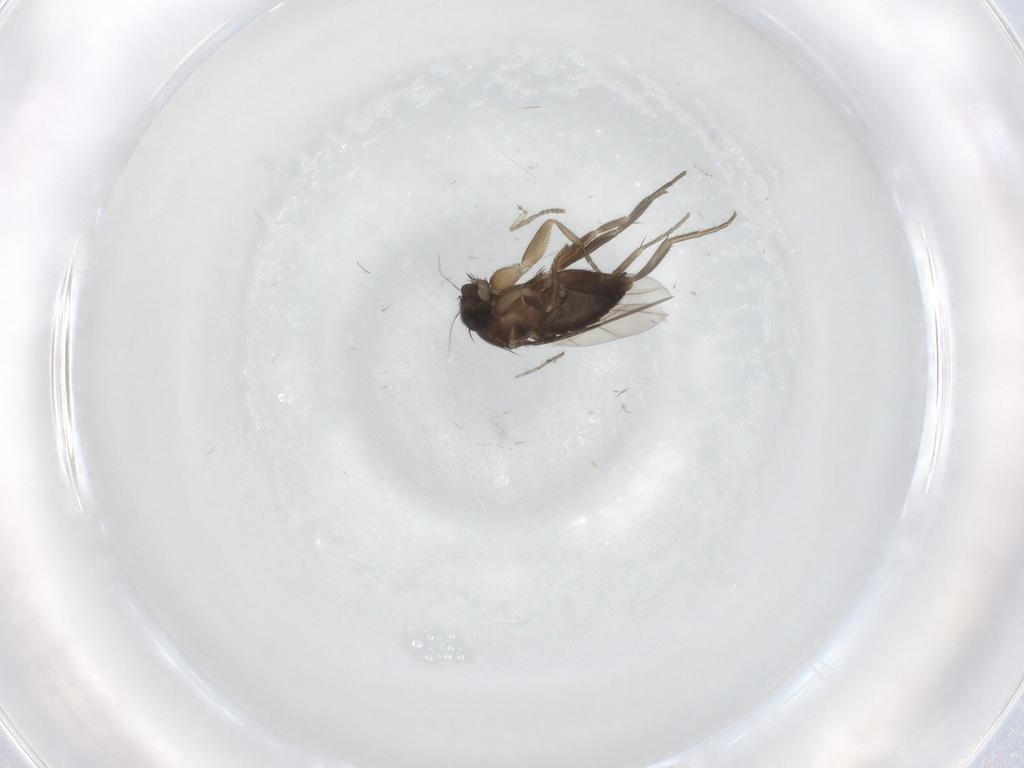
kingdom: Animalia
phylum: Arthropoda
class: Insecta
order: Diptera
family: Phoridae
